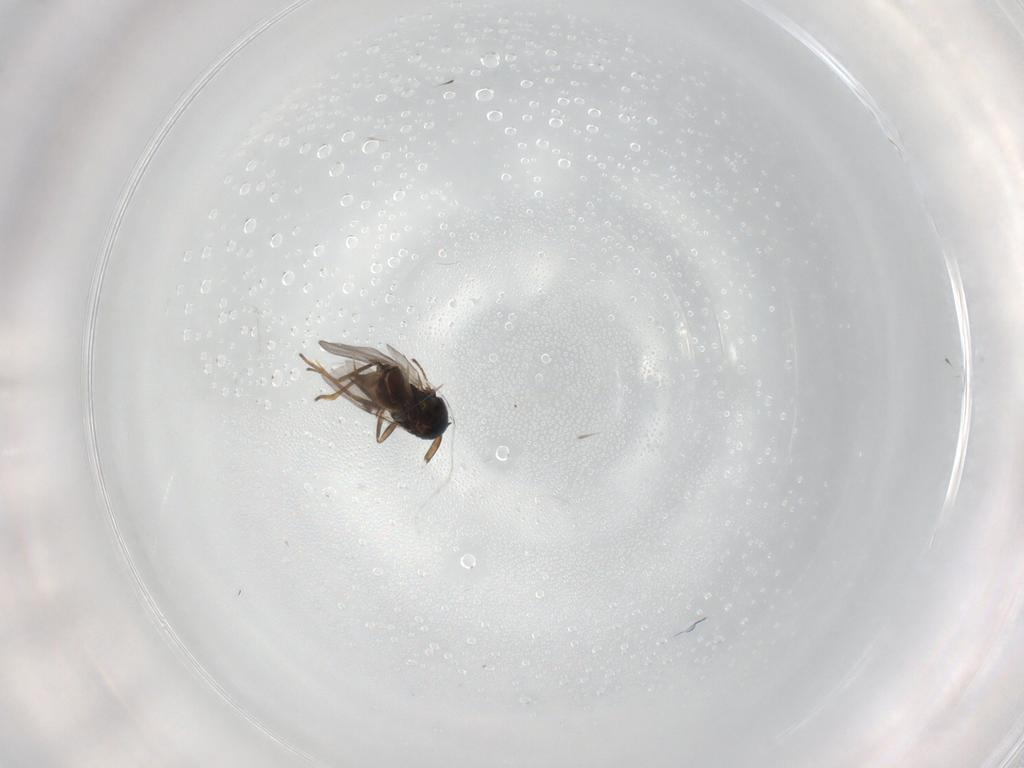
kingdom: Animalia
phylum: Arthropoda
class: Insecta
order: Hymenoptera
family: Encyrtidae
